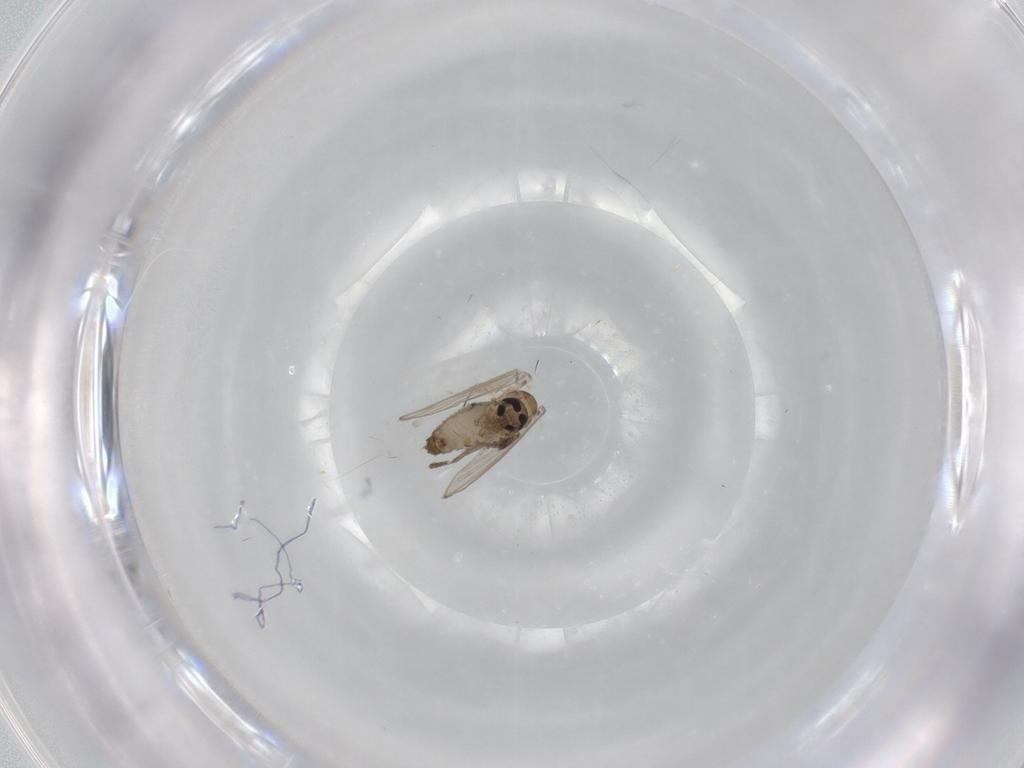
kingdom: Animalia
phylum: Arthropoda
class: Insecta
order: Diptera
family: Psychodidae
